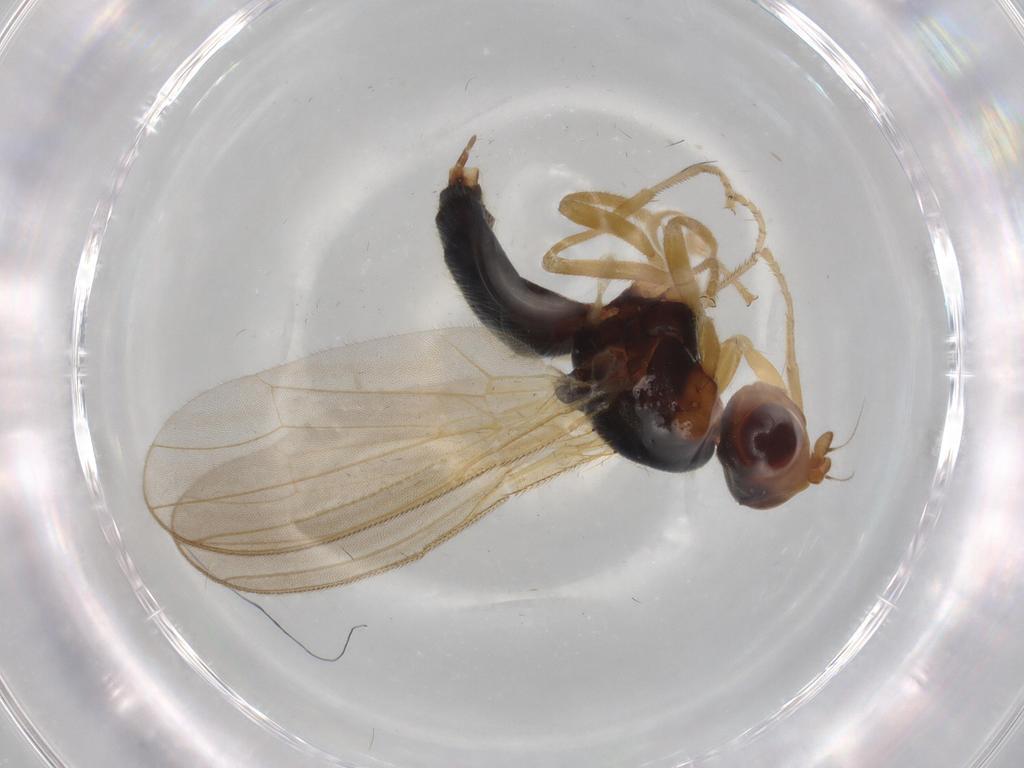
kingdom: Animalia
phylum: Arthropoda
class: Insecta
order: Diptera
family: Psilidae
